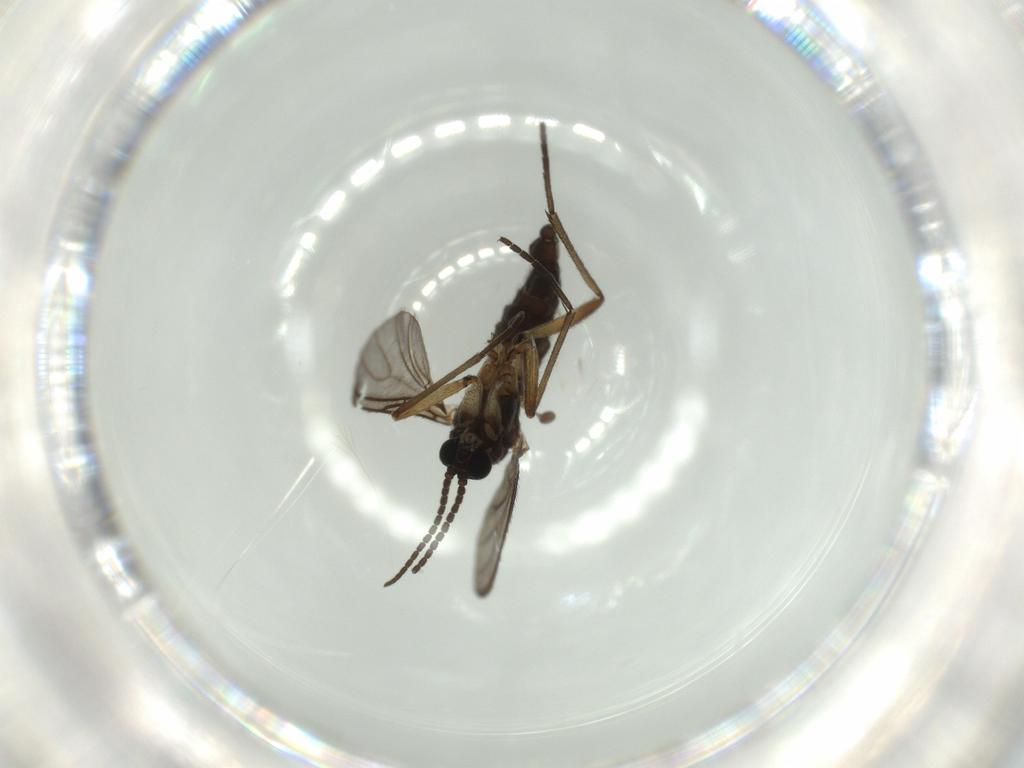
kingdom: Animalia
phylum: Arthropoda
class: Insecta
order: Diptera
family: Sciaridae
